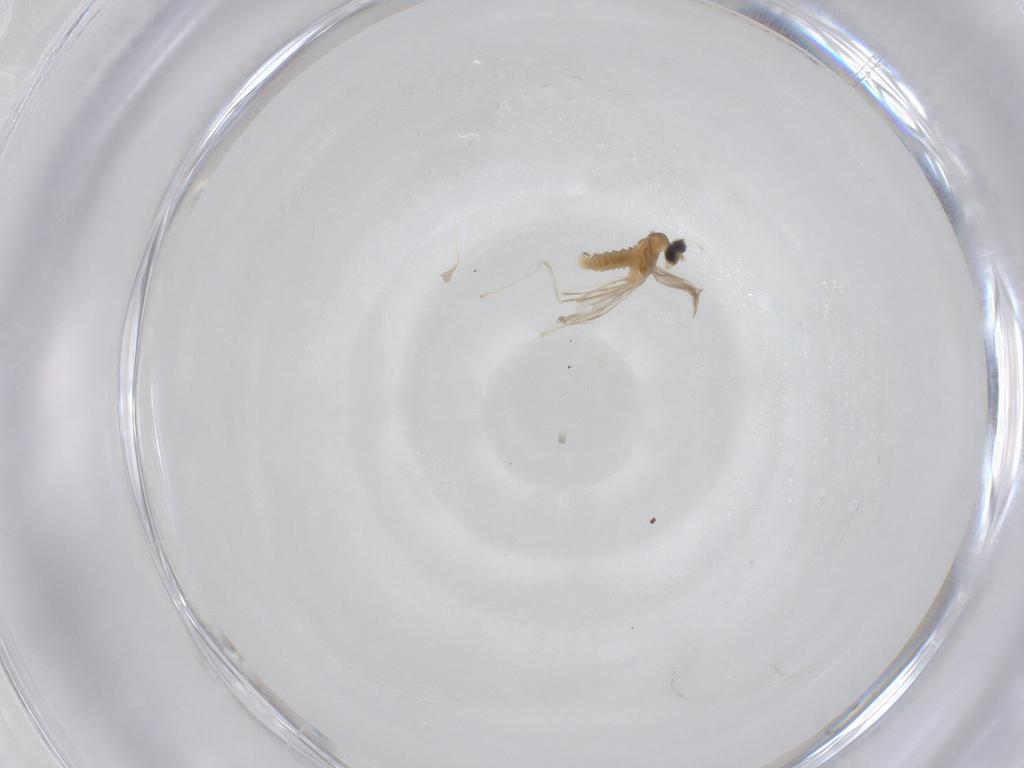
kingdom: Animalia
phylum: Arthropoda
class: Insecta
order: Diptera
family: Cecidomyiidae
